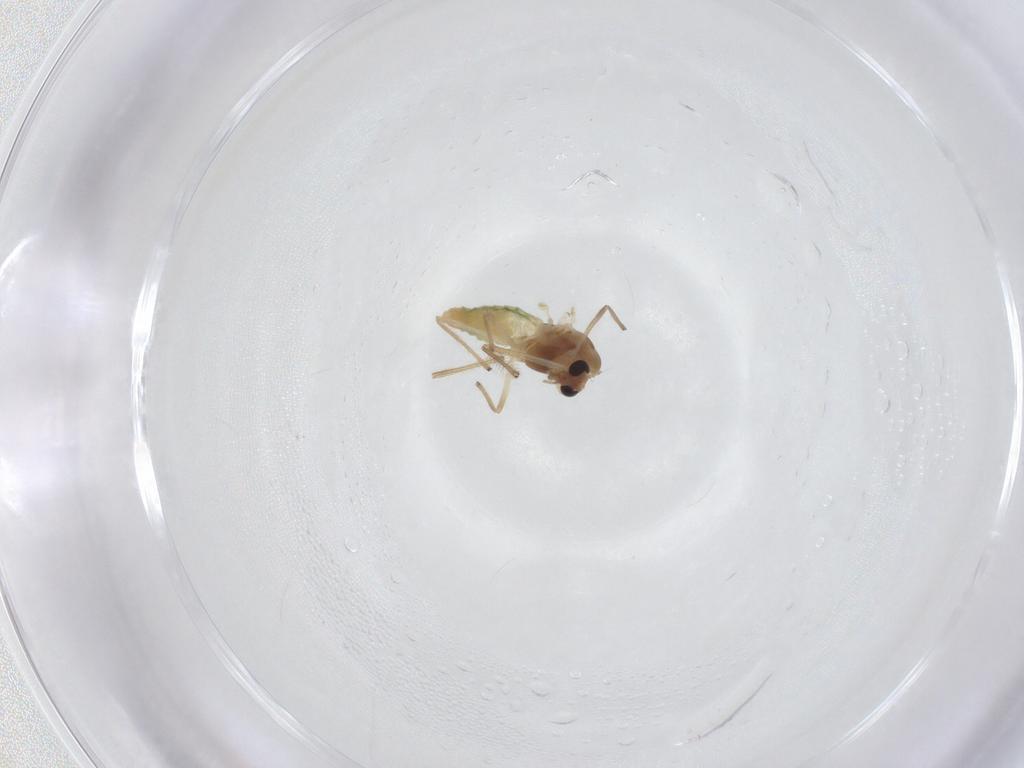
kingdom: Animalia
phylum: Arthropoda
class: Insecta
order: Diptera
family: Chironomidae
